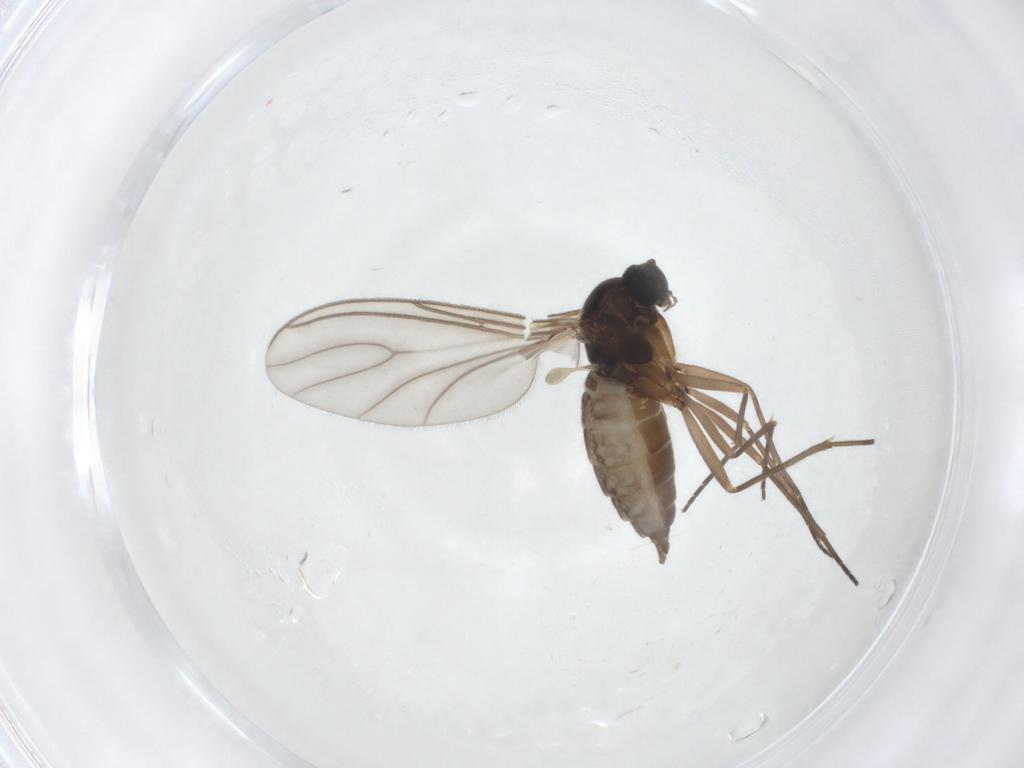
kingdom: Animalia
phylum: Arthropoda
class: Insecta
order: Diptera
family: Sciaridae
